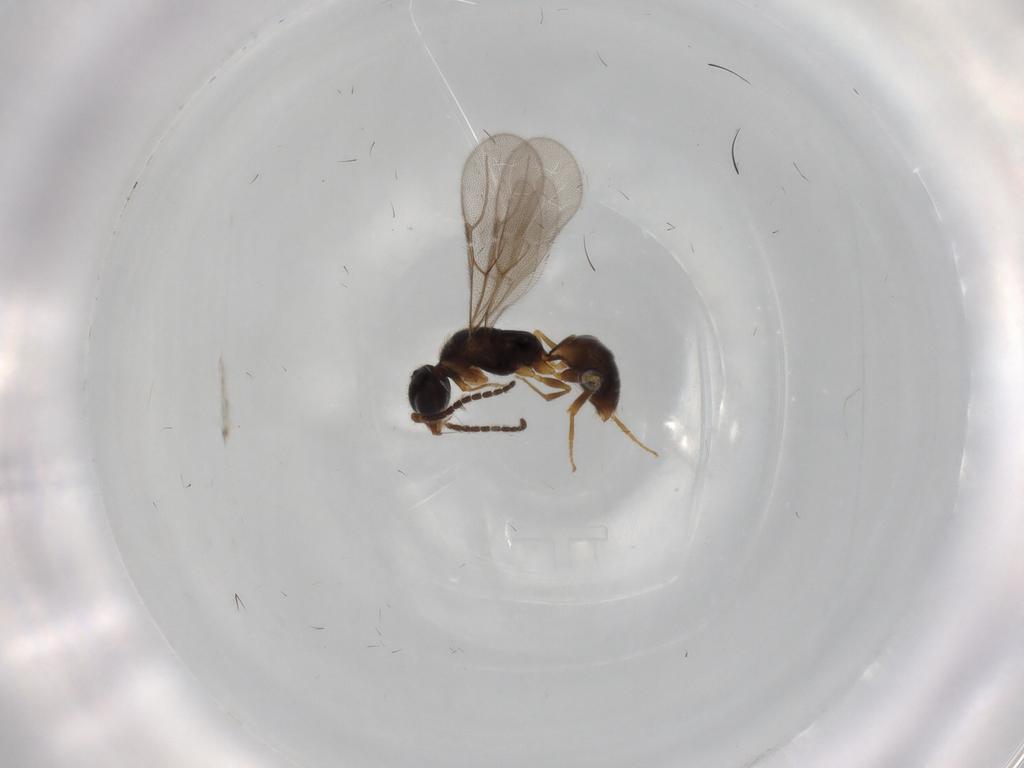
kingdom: Animalia
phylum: Arthropoda
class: Insecta
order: Hymenoptera
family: Bethylidae
